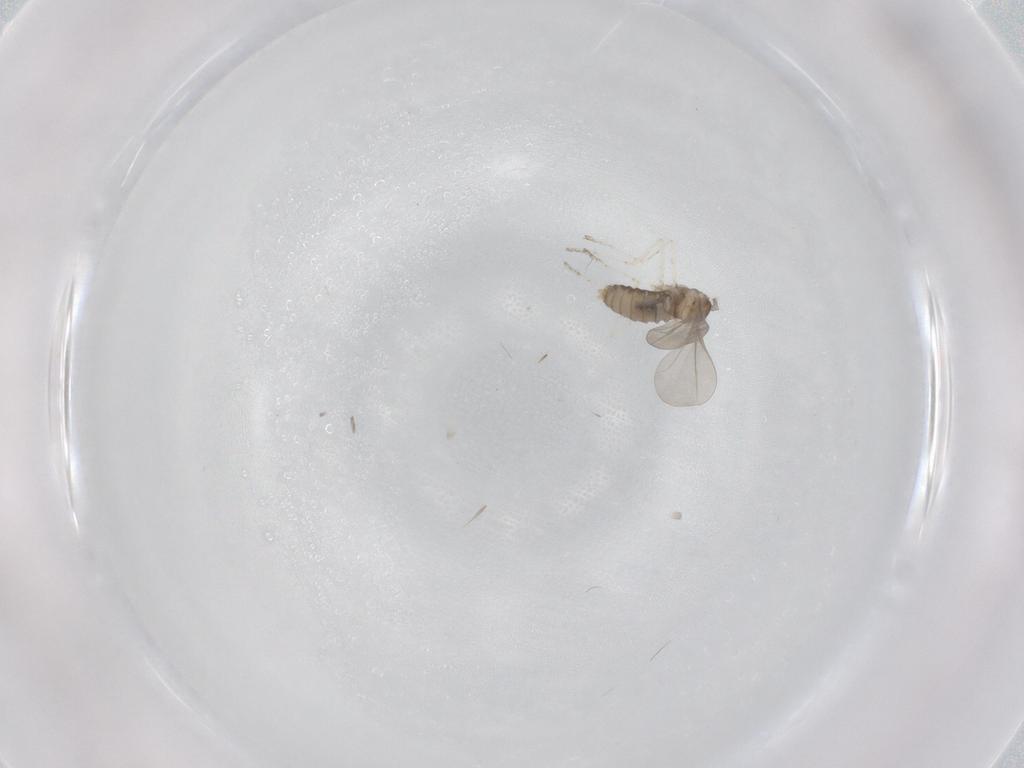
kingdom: Animalia
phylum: Arthropoda
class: Insecta
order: Diptera
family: Cecidomyiidae
